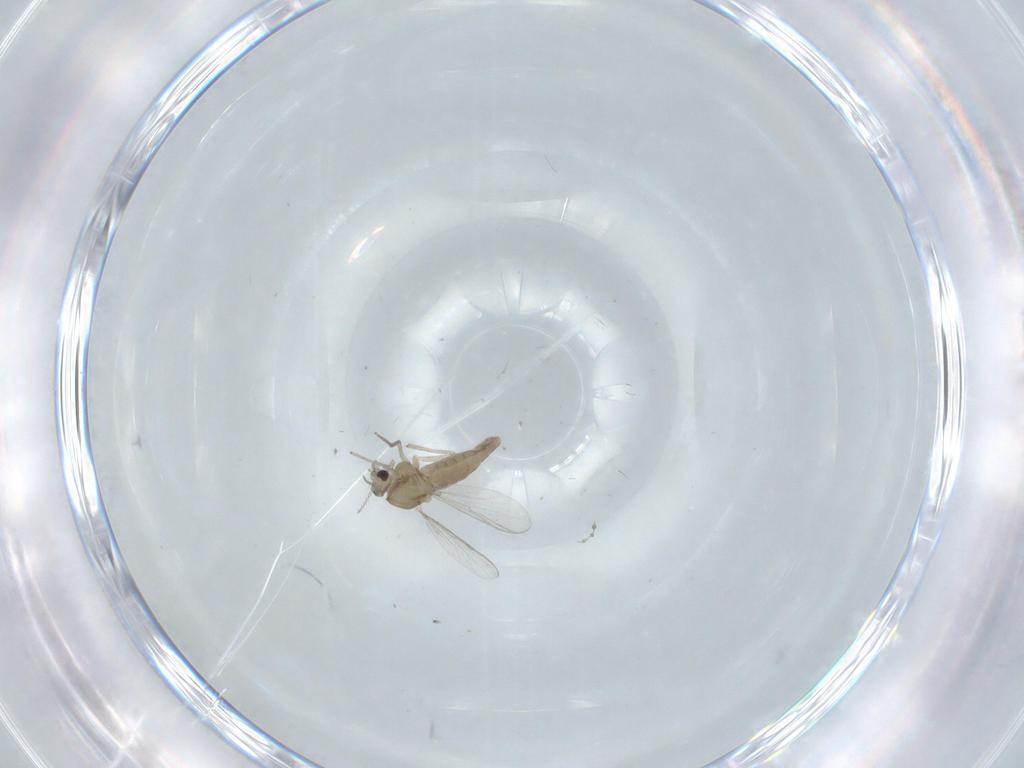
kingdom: Animalia
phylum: Arthropoda
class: Insecta
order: Diptera
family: Chironomidae
